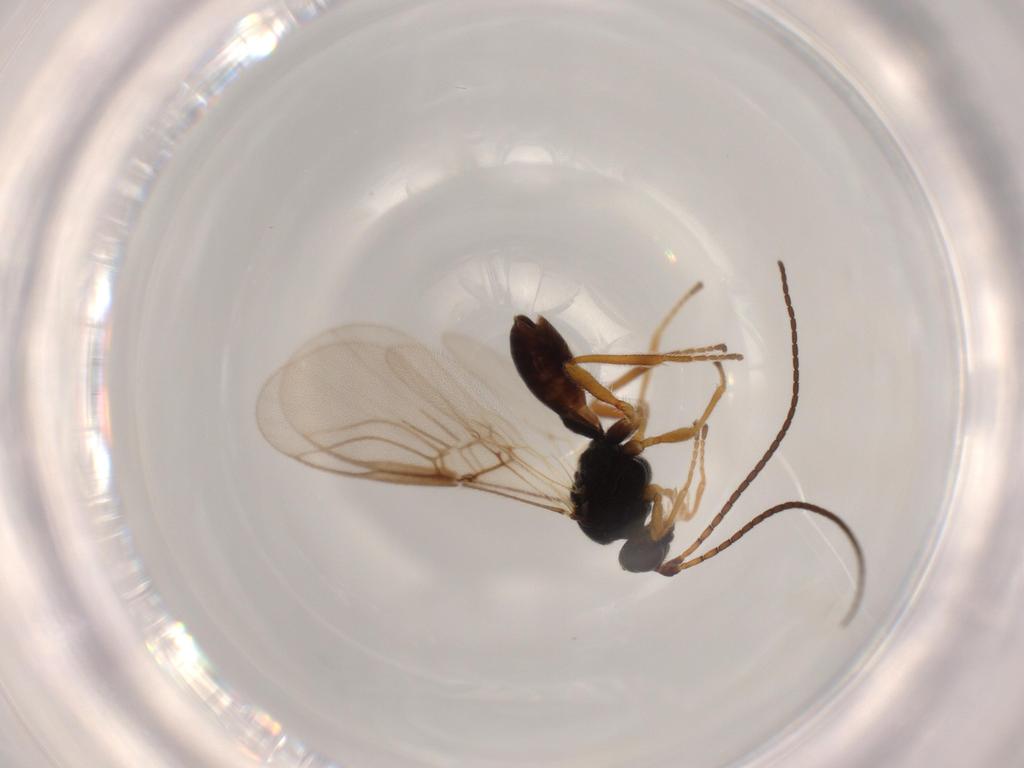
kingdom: Animalia
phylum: Arthropoda
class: Insecta
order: Hymenoptera
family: Braconidae
